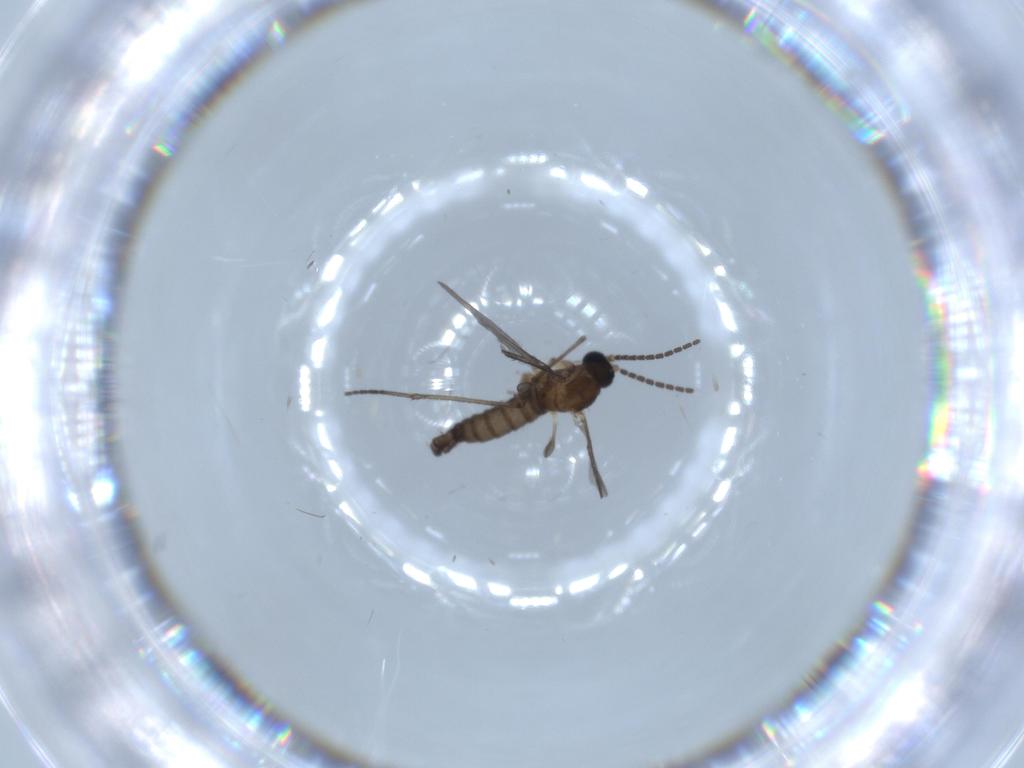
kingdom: Animalia
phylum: Arthropoda
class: Insecta
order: Diptera
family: Sciaridae
